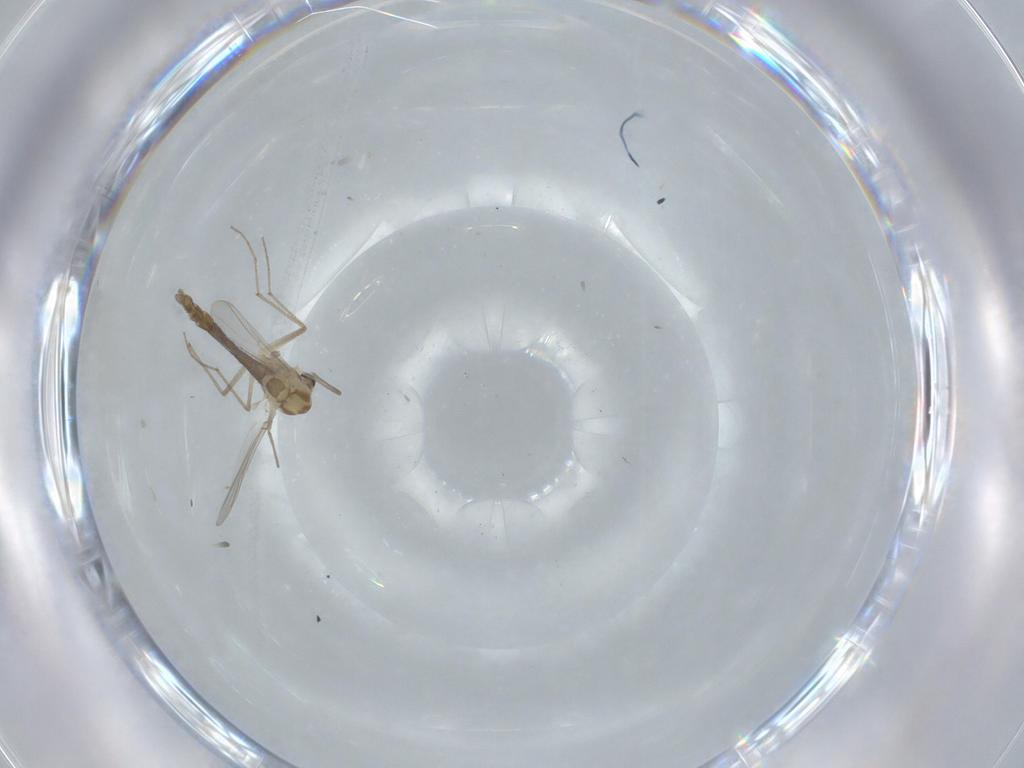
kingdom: Animalia
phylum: Arthropoda
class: Insecta
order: Diptera
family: Chironomidae
